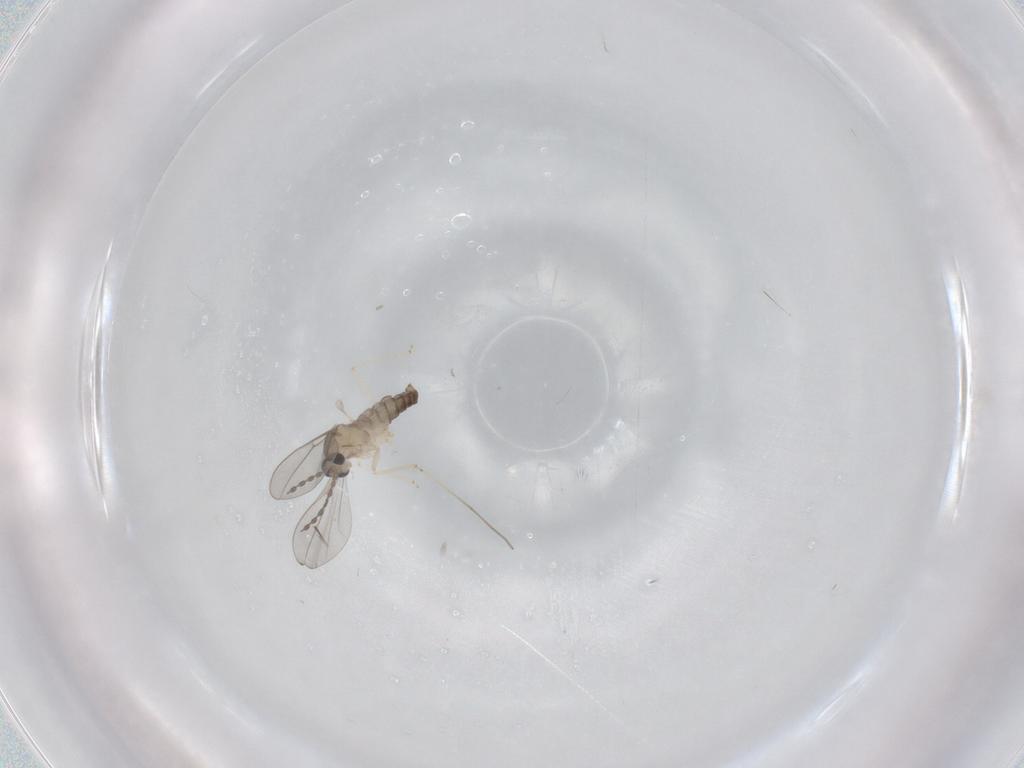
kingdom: Animalia
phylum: Arthropoda
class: Insecta
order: Diptera
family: Cecidomyiidae
